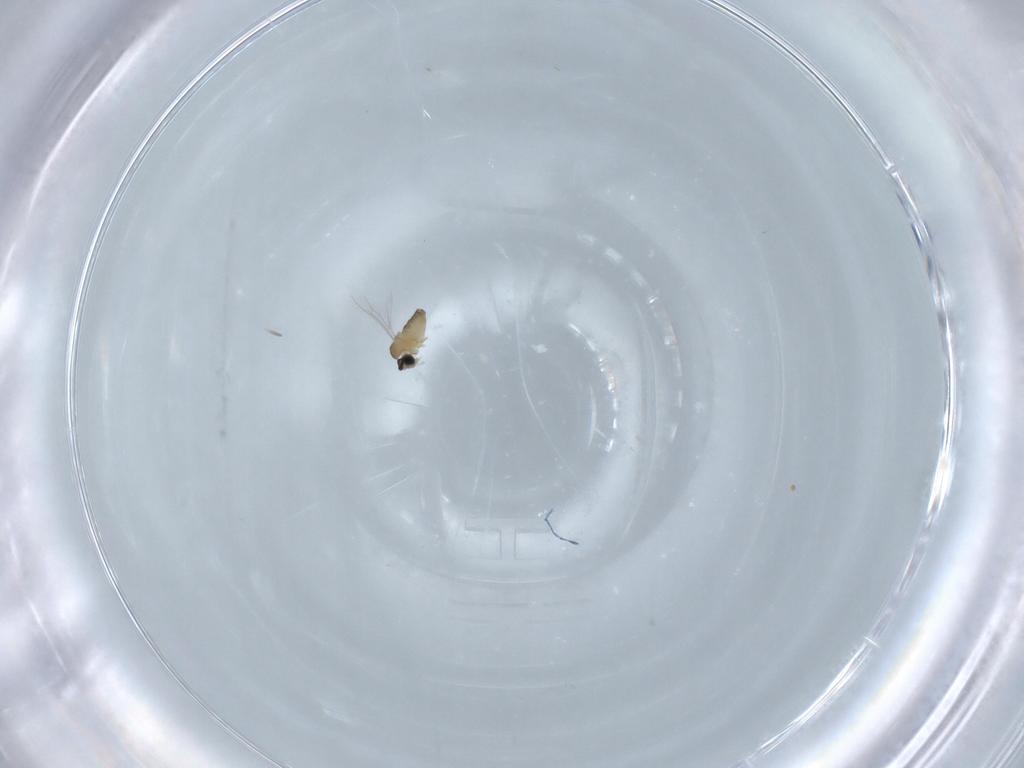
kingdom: Animalia
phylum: Arthropoda
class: Insecta
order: Diptera
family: Cecidomyiidae
